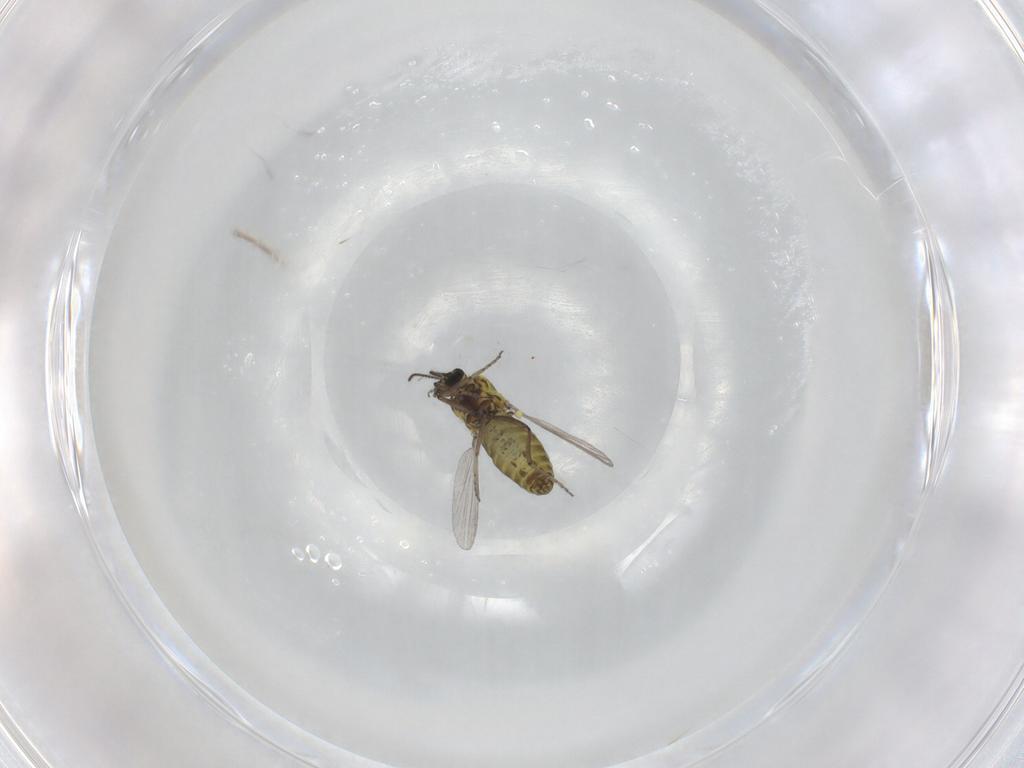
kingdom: Animalia
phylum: Arthropoda
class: Insecta
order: Diptera
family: Ceratopogonidae
